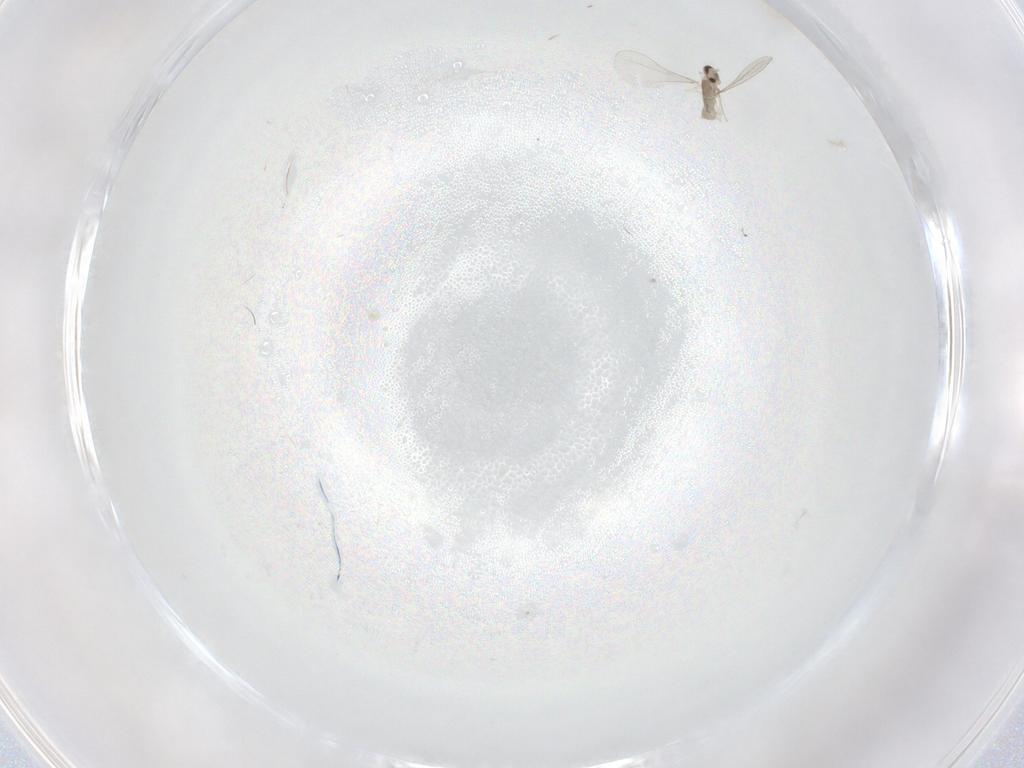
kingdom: Animalia
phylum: Arthropoda
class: Insecta
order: Diptera
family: Cecidomyiidae
